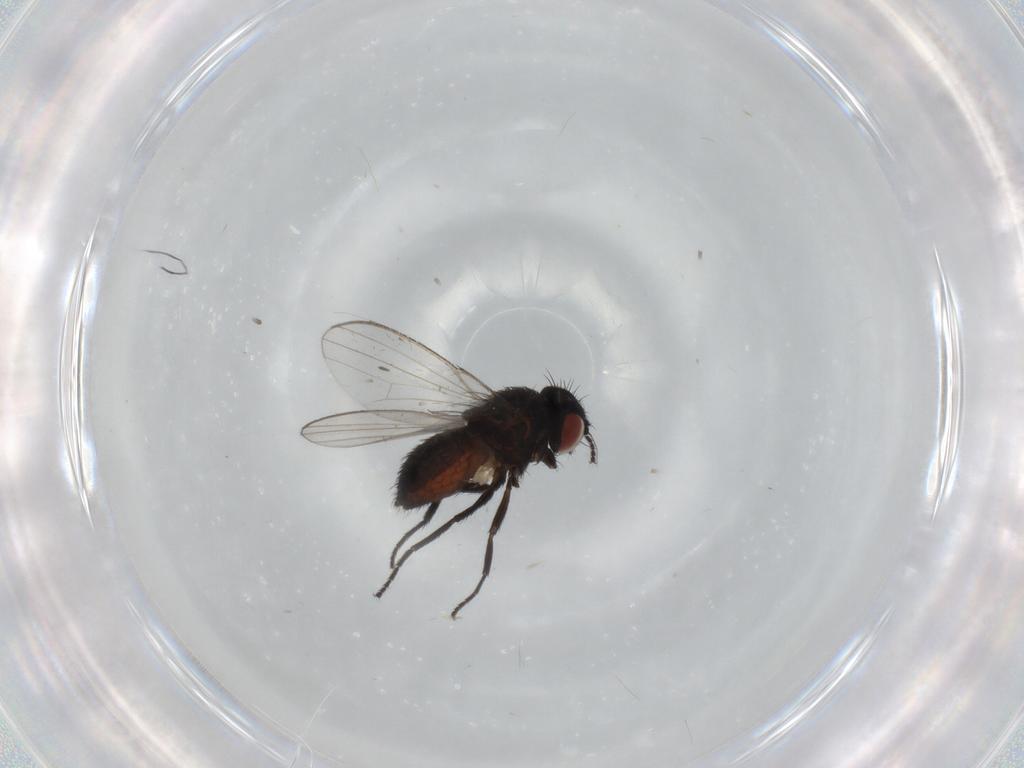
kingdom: Animalia
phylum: Arthropoda
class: Insecta
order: Diptera
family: Milichiidae
